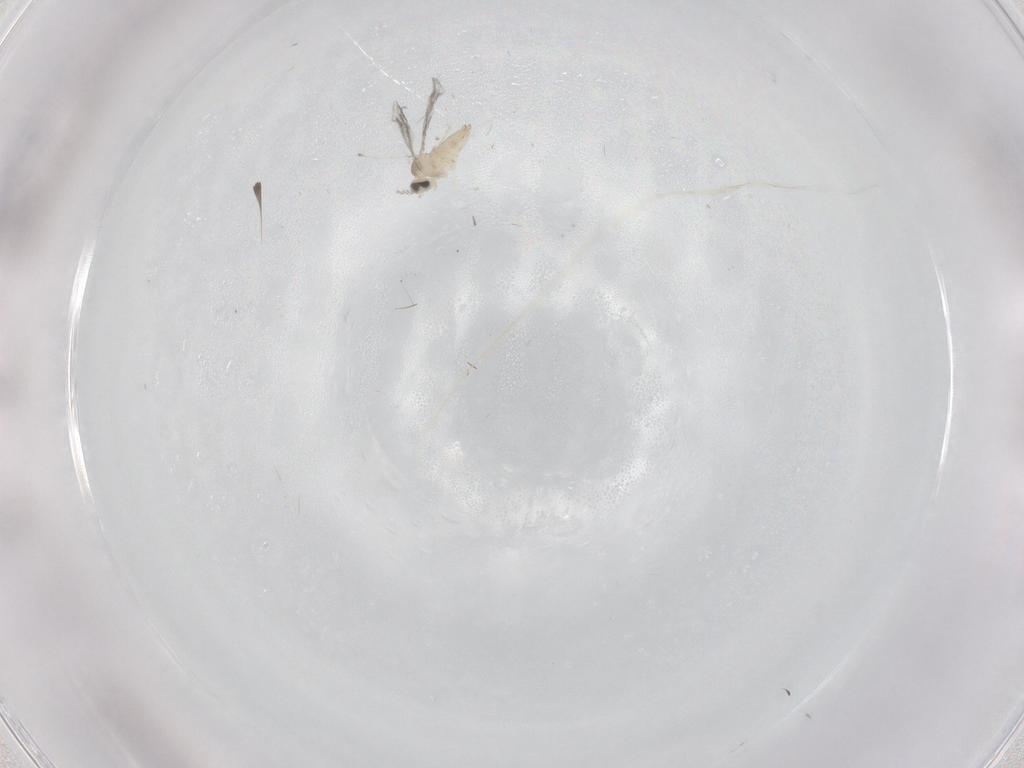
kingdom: Animalia
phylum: Arthropoda
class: Insecta
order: Diptera
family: Cecidomyiidae
